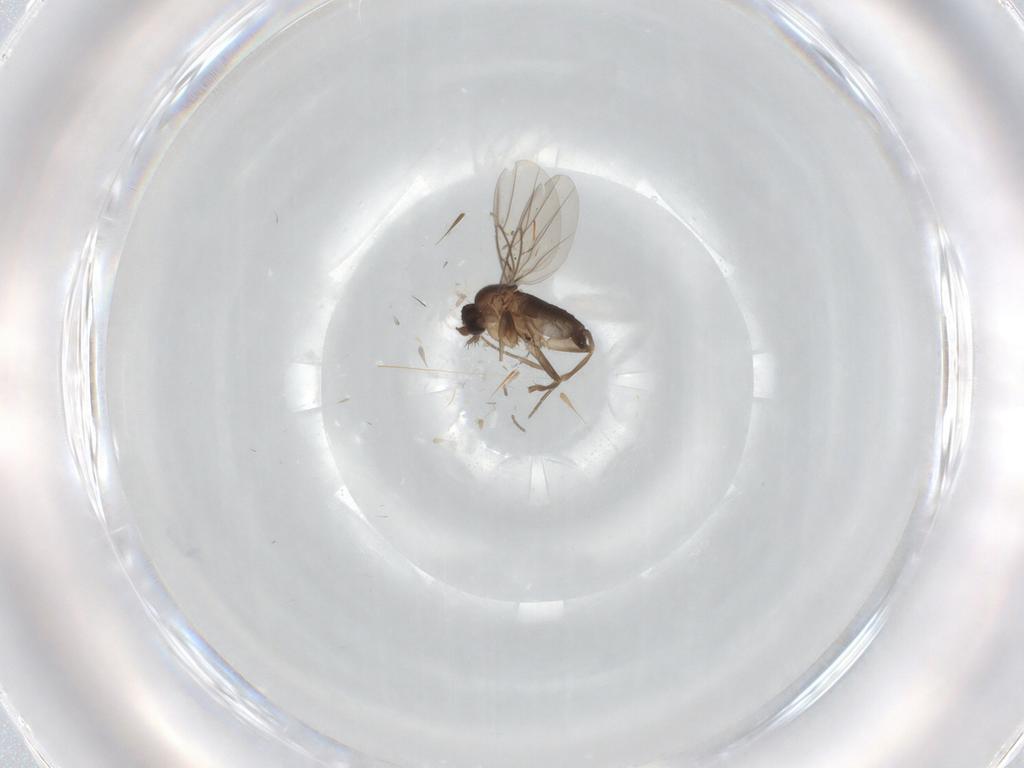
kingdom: Animalia
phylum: Arthropoda
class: Insecta
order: Diptera
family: Phoridae
